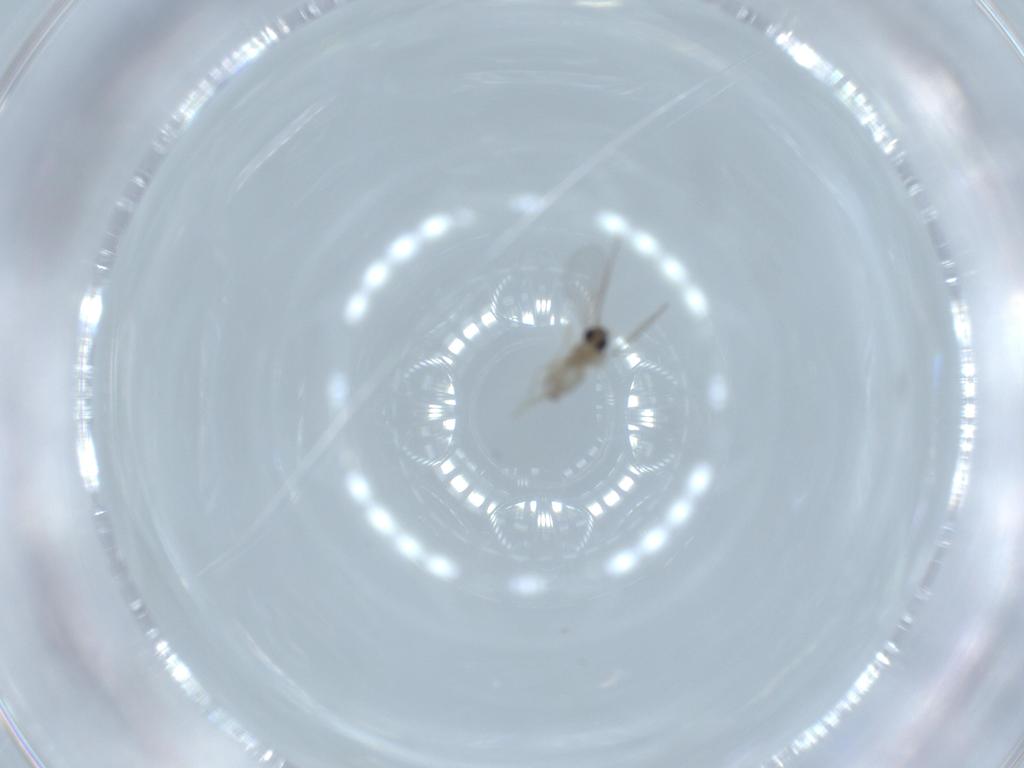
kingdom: Animalia
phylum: Arthropoda
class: Insecta
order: Diptera
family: Cecidomyiidae
